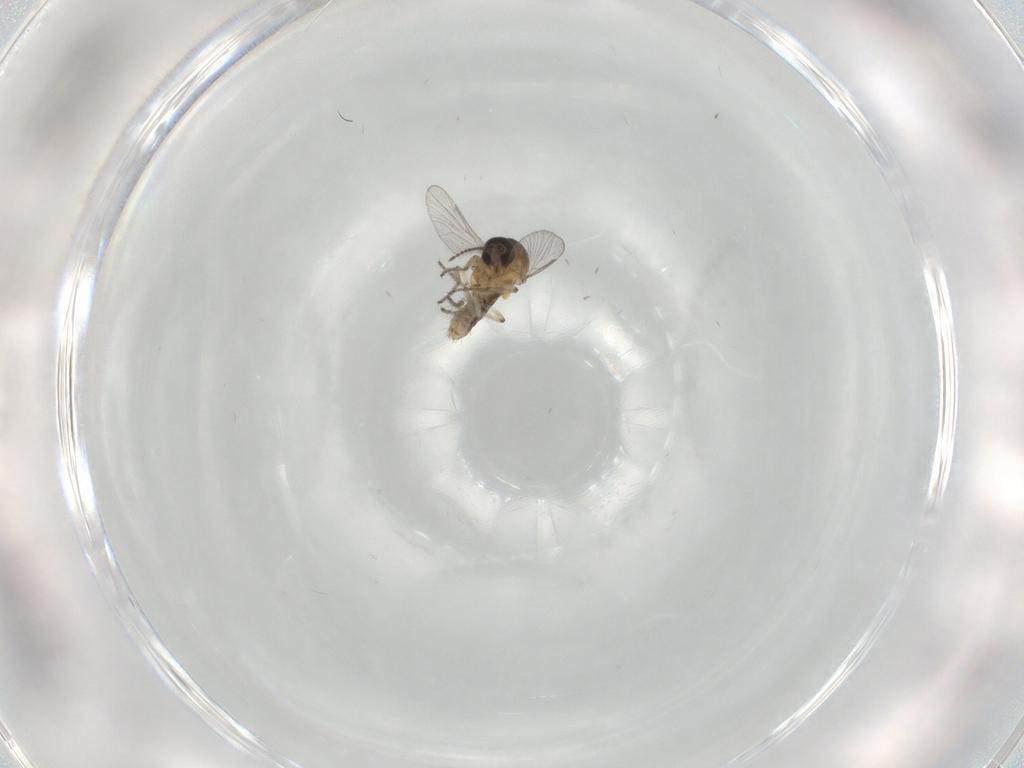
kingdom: Animalia
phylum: Arthropoda
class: Insecta
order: Diptera
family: Ceratopogonidae
